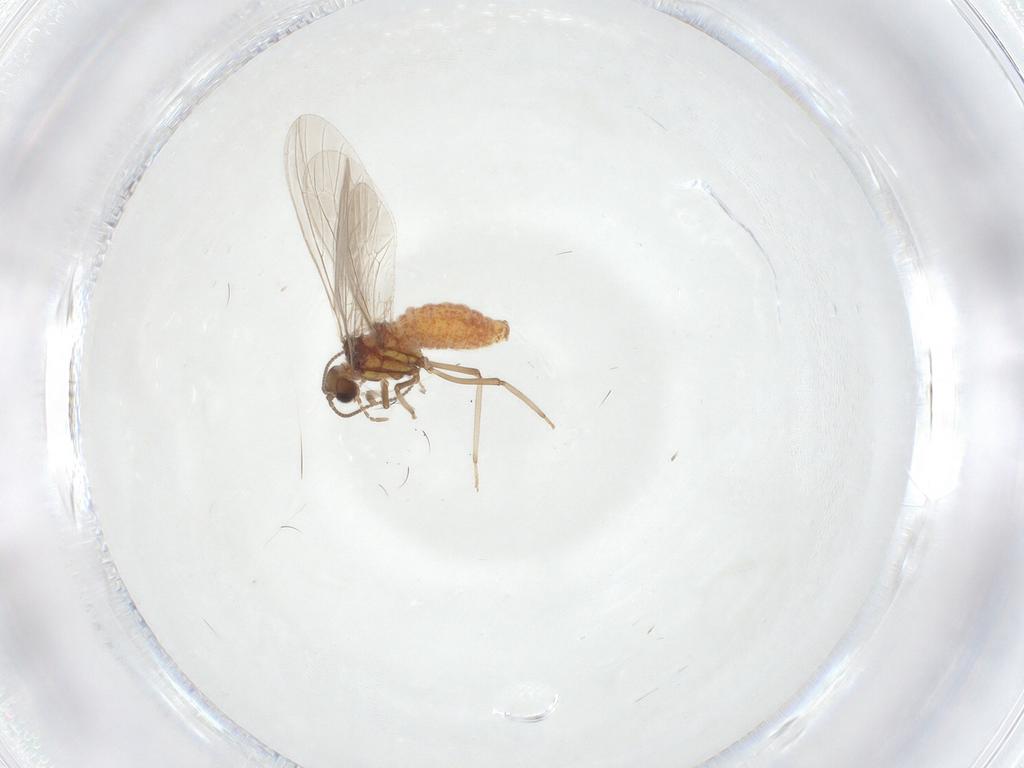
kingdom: Animalia
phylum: Arthropoda
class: Insecta
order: Neuroptera
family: Coniopterygidae
